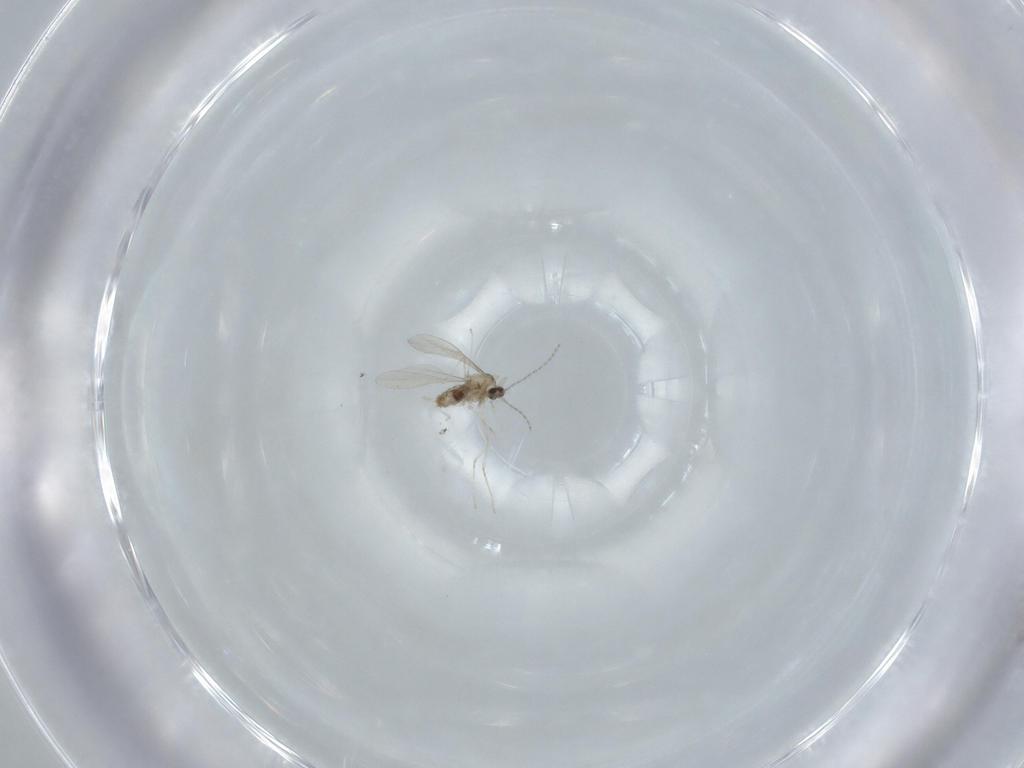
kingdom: Animalia
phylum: Arthropoda
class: Insecta
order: Diptera
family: Cecidomyiidae
